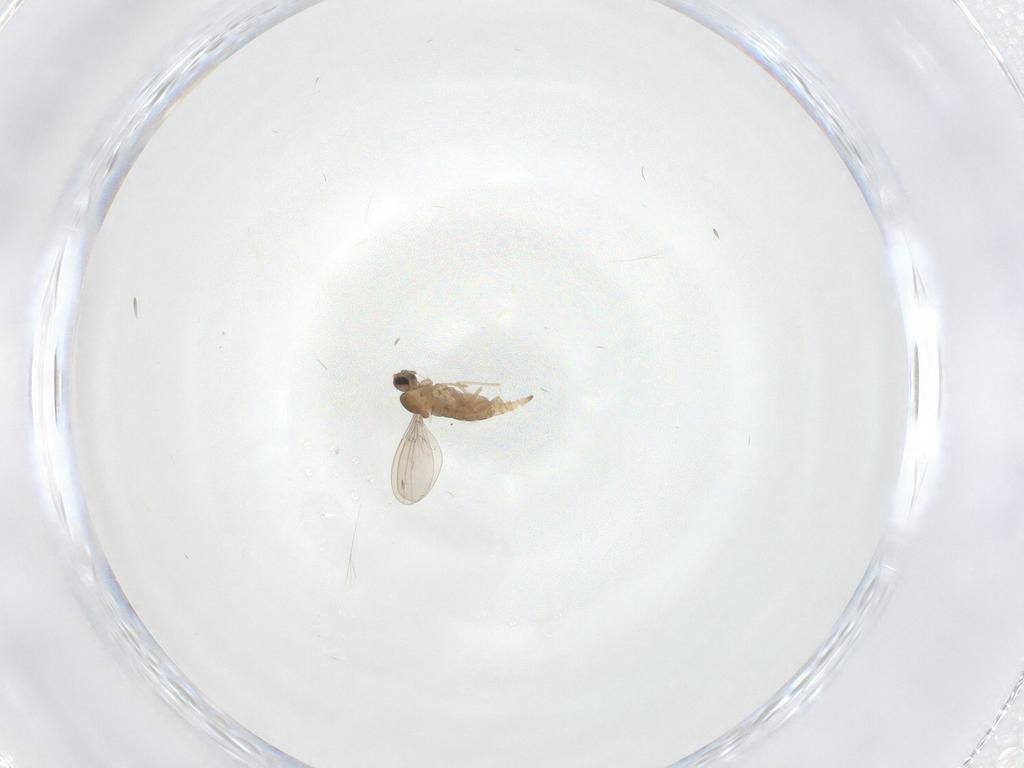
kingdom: Animalia
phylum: Arthropoda
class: Insecta
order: Diptera
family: Cecidomyiidae
